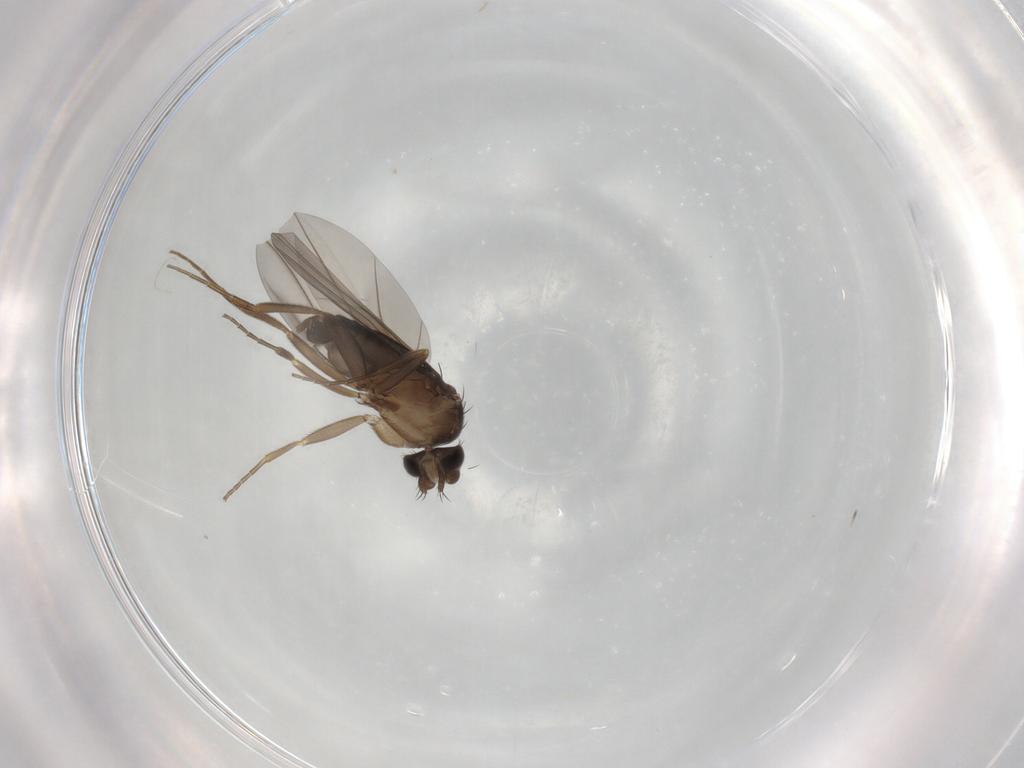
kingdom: Animalia
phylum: Arthropoda
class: Insecta
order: Diptera
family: Phoridae
